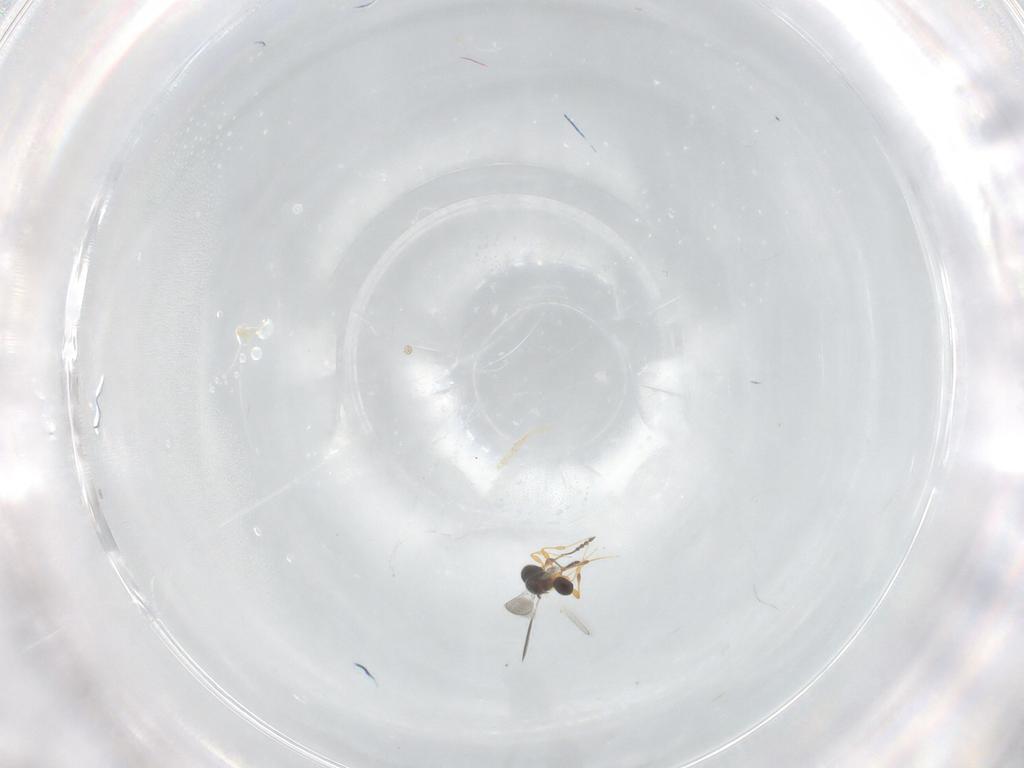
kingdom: Animalia
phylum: Arthropoda
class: Insecta
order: Hymenoptera
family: Platygastridae
